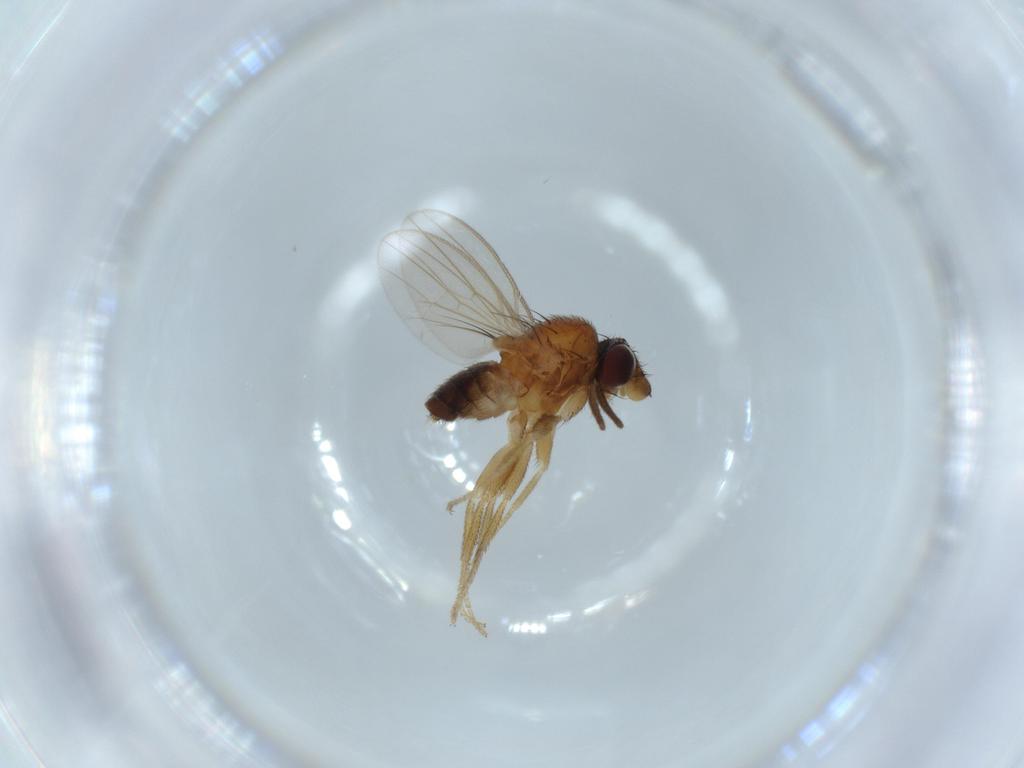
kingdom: Animalia
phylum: Arthropoda
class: Insecta
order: Diptera
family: Milichiidae
